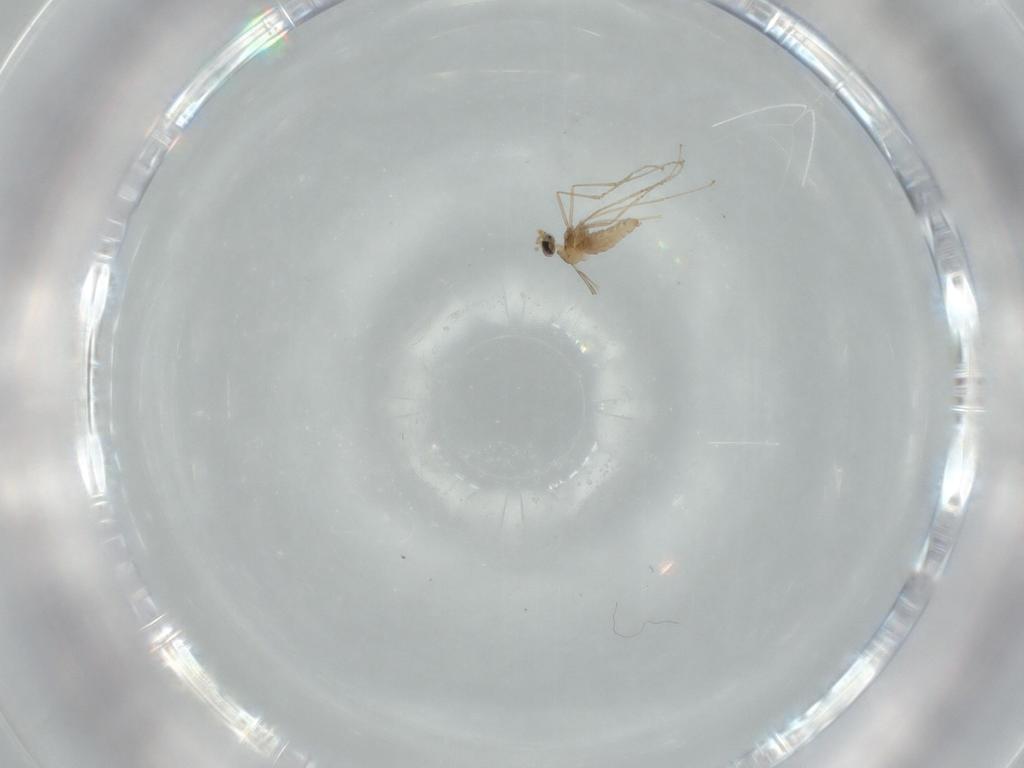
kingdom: Animalia
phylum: Arthropoda
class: Insecta
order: Diptera
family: Cecidomyiidae
